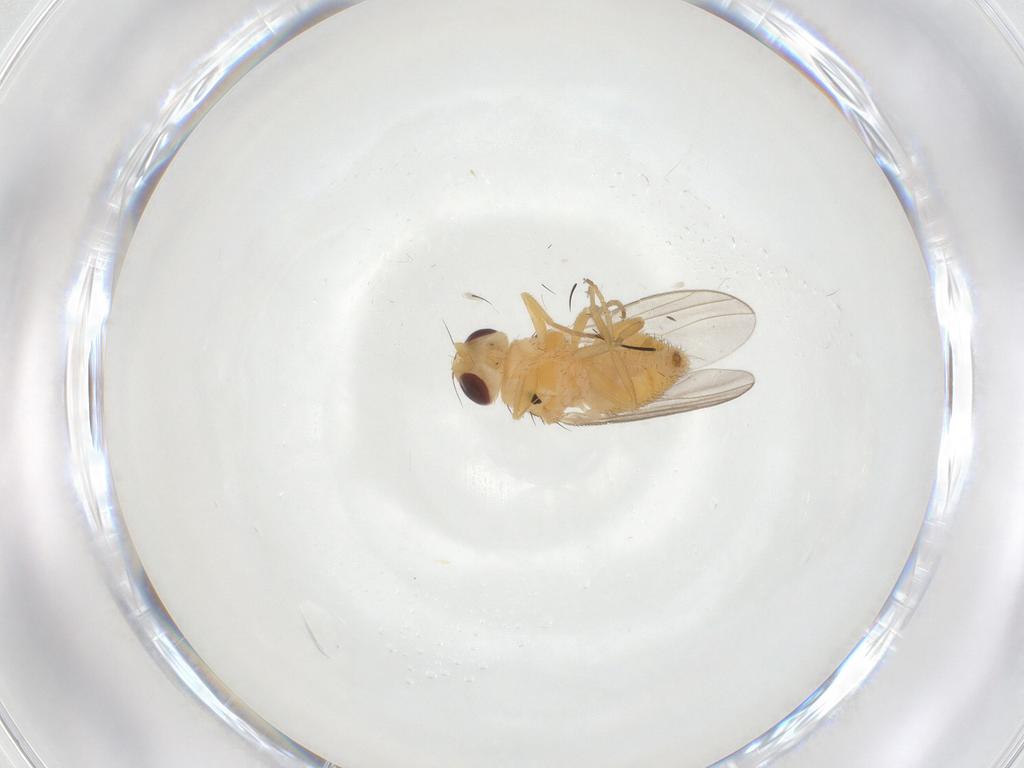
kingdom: Animalia
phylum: Arthropoda
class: Insecta
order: Diptera
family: Chloropidae
